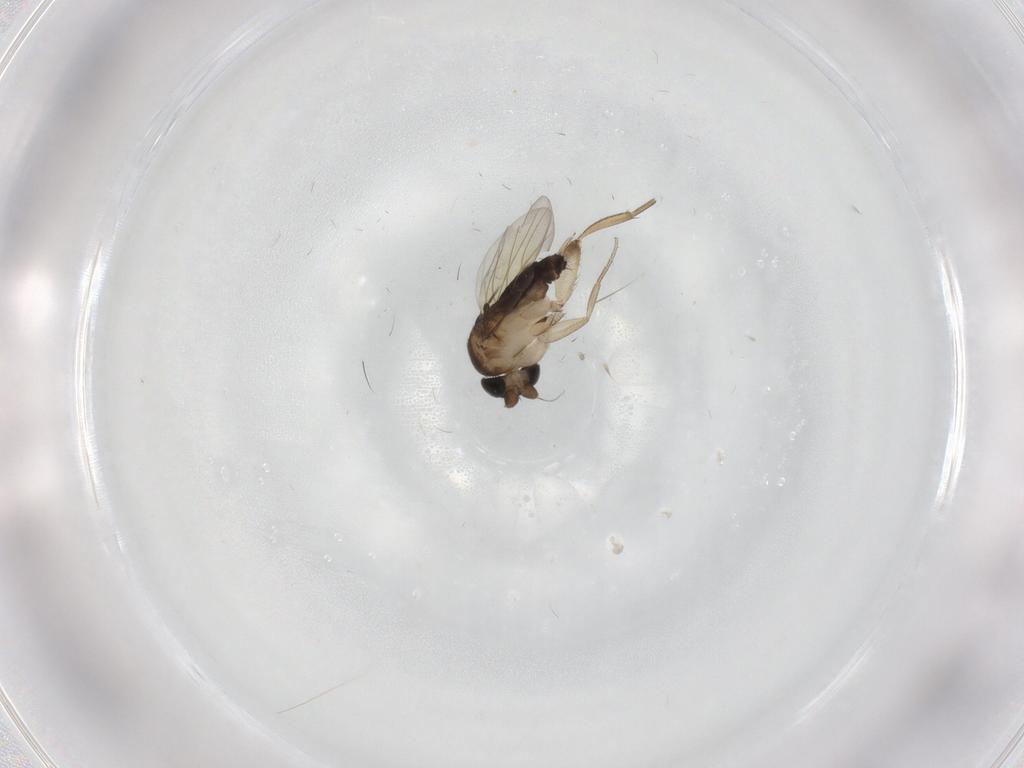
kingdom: Animalia
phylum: Arthropoda
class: Insecta
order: Diptera
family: Phoridae
